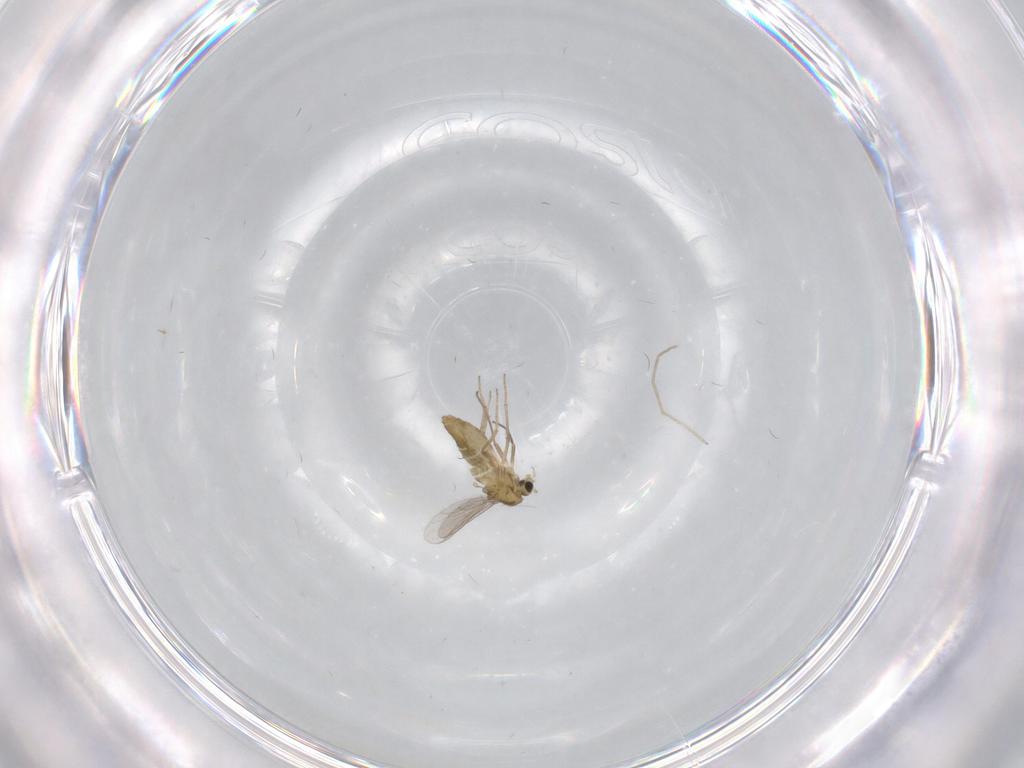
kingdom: Animalia
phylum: Arthropoda
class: Insecta
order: Diptera
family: Chironomidae
